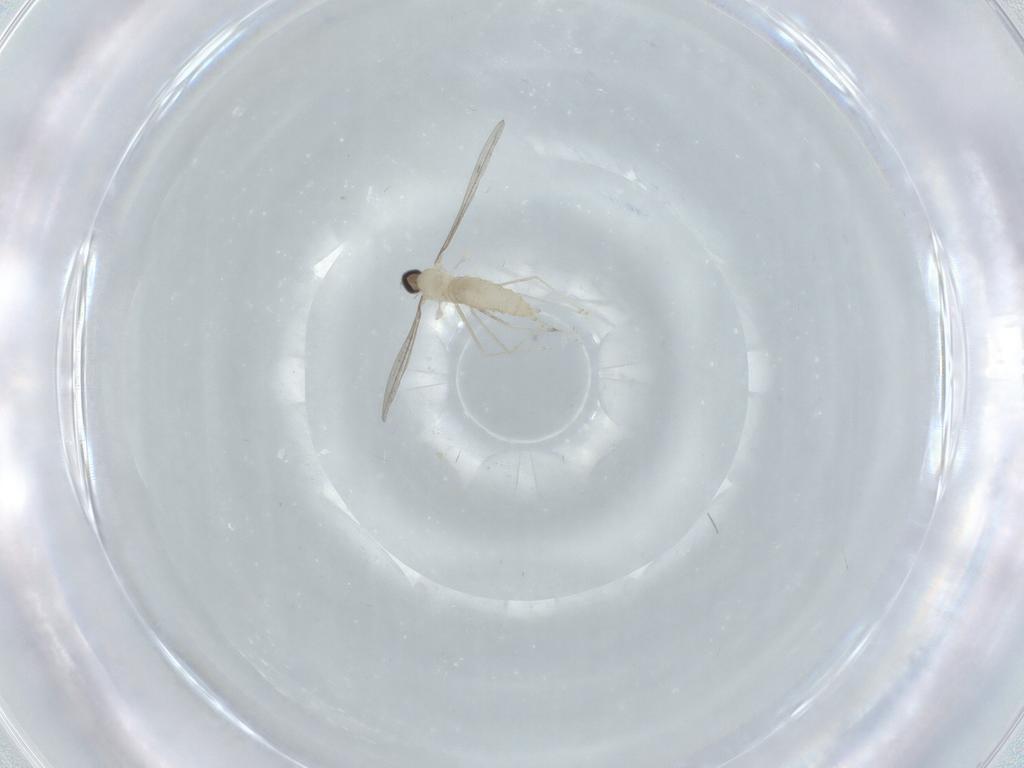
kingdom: Animalia
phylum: Arthropoda
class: Insecta
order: Diptera
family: Cecidomyiidae
